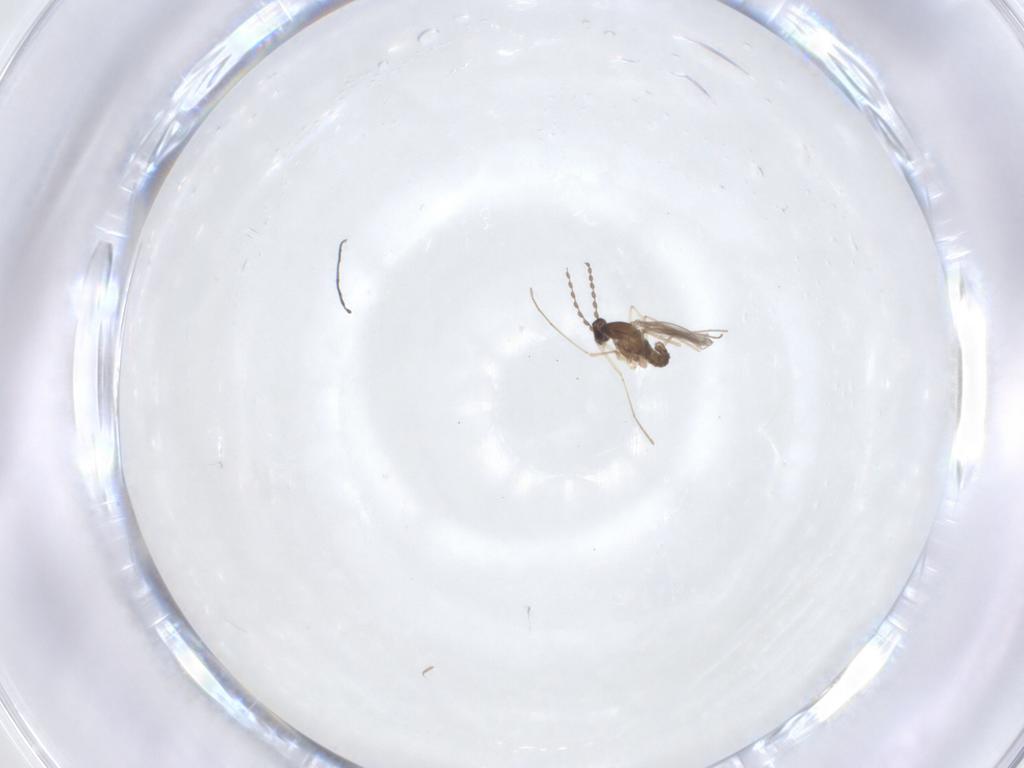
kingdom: Animalia
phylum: Arthropoda
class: Insecta
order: Diptera
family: Cecidomyiidae
